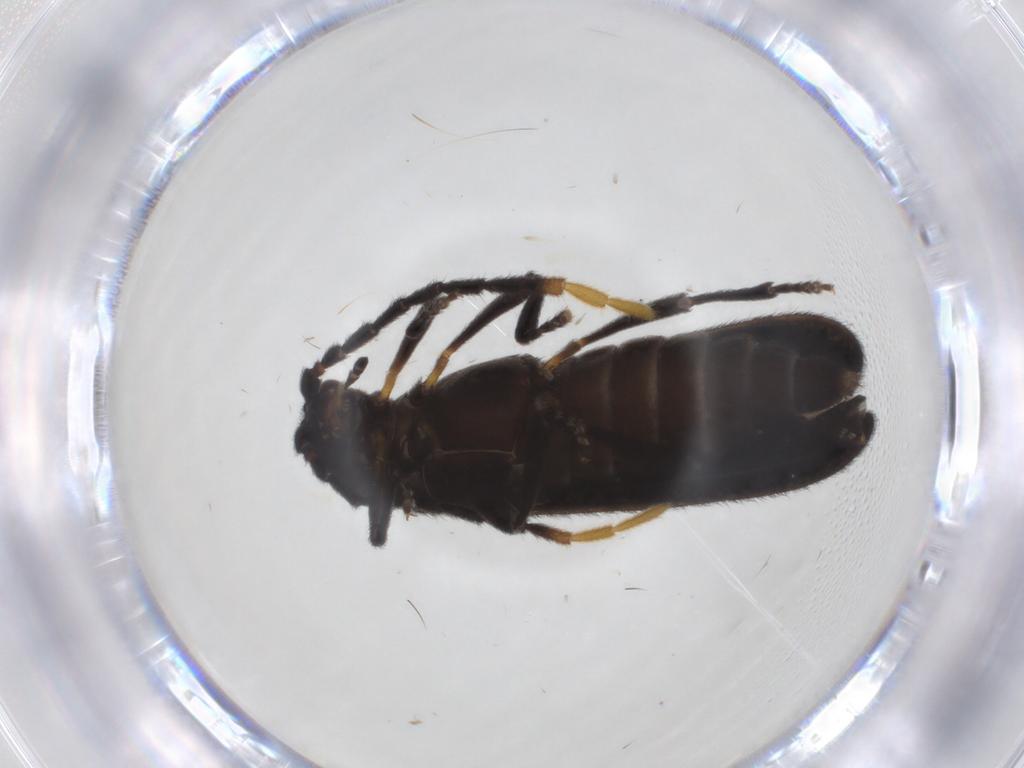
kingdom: Animalia
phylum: Arthropoda
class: Insecta
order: Coleoptera
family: Lycidae
